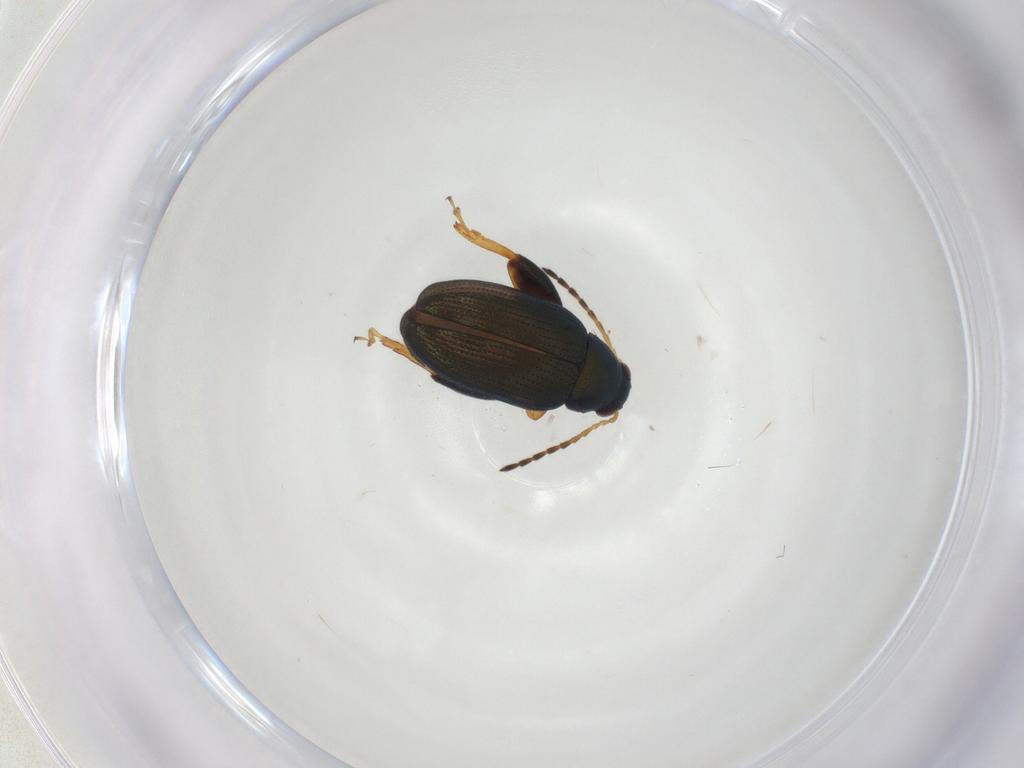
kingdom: Animalia
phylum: Arthropoda
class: Insecta
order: Coleoptera
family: Chrysomelidae
